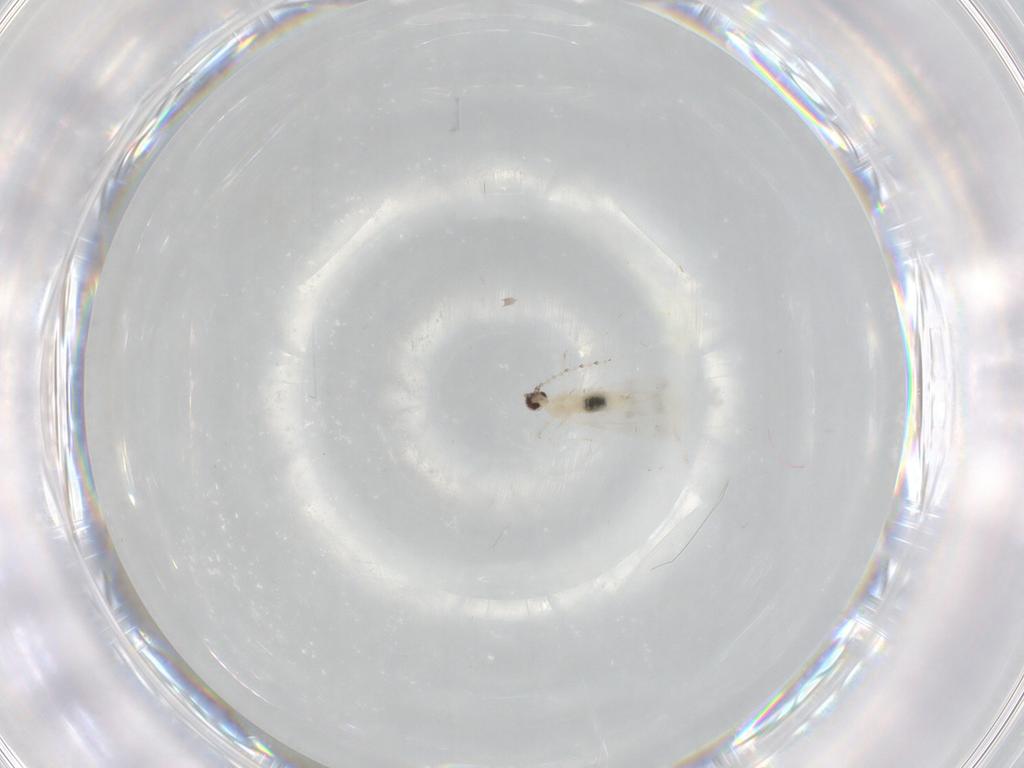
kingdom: Animalia
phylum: Arthropoda
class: Insecta
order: Diptera
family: Cecidomyiidae
